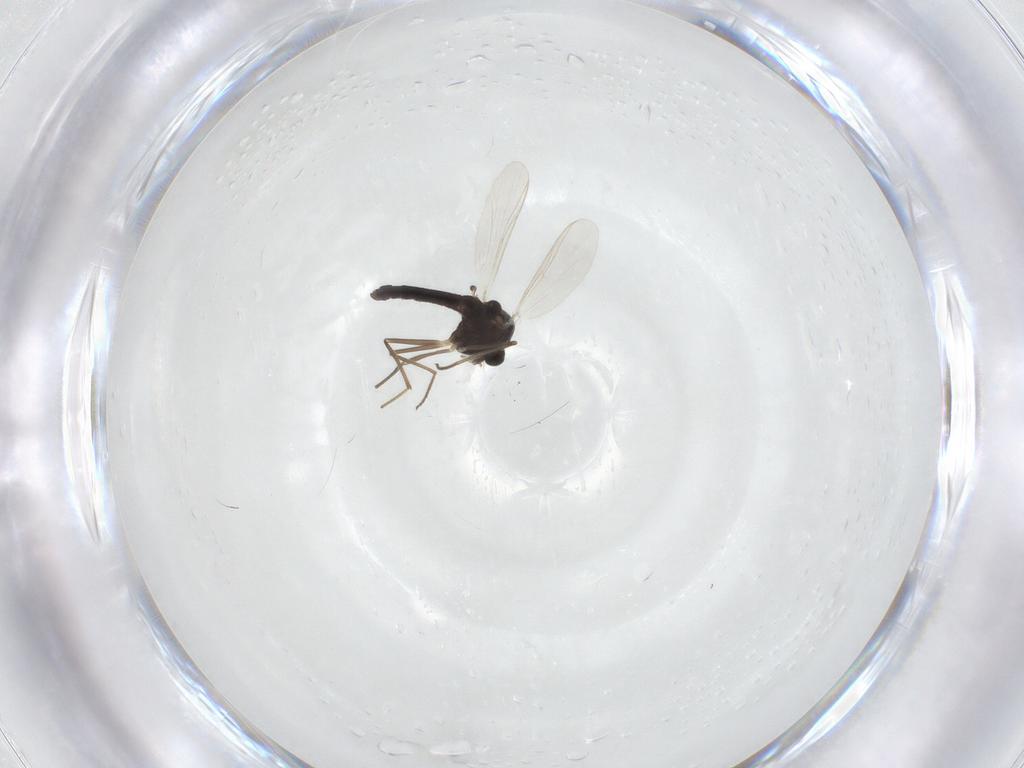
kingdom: Animalia
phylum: Arthropoda
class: Insecta
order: Diptera
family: Chironomidae
